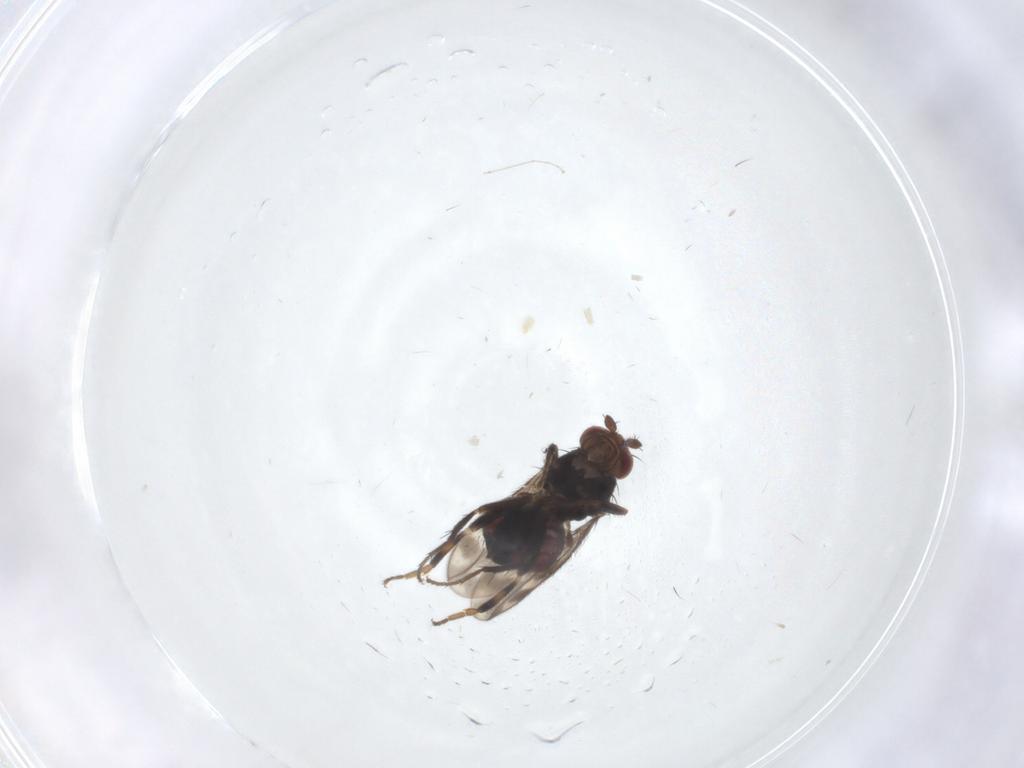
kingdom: Animalia
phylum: Arthropoda
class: Insecta
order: Diptera
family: Sphaeroceridae
